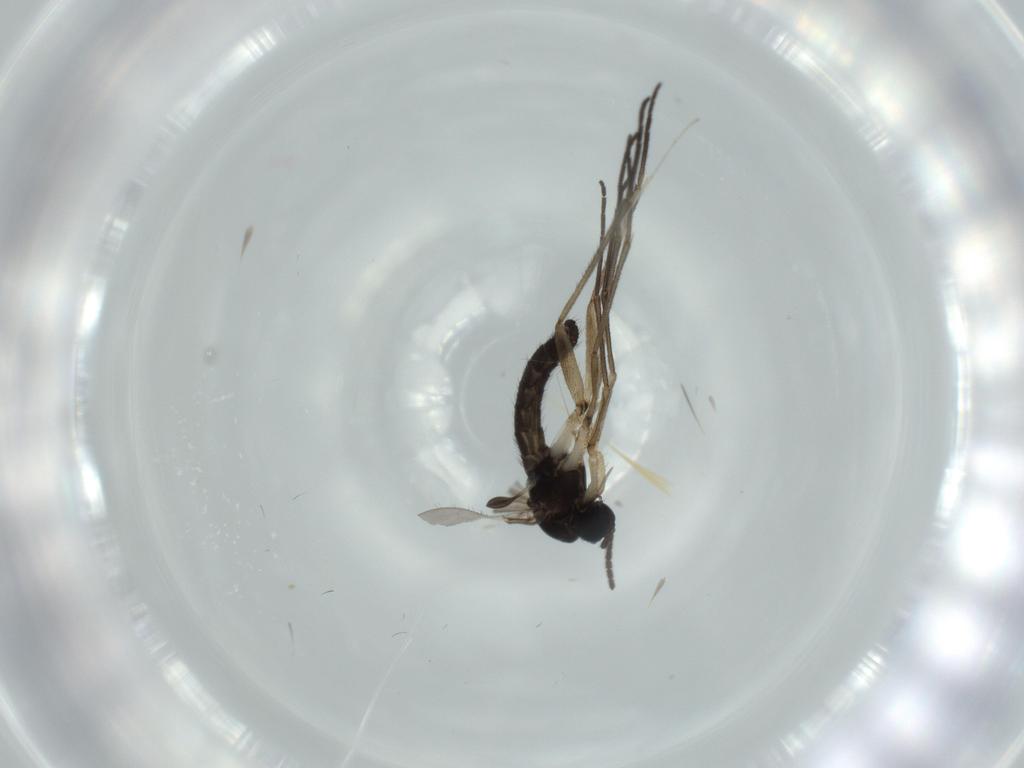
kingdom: Animalia
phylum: Arthropoda
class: Insecta
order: Diptera
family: Sciaridae
